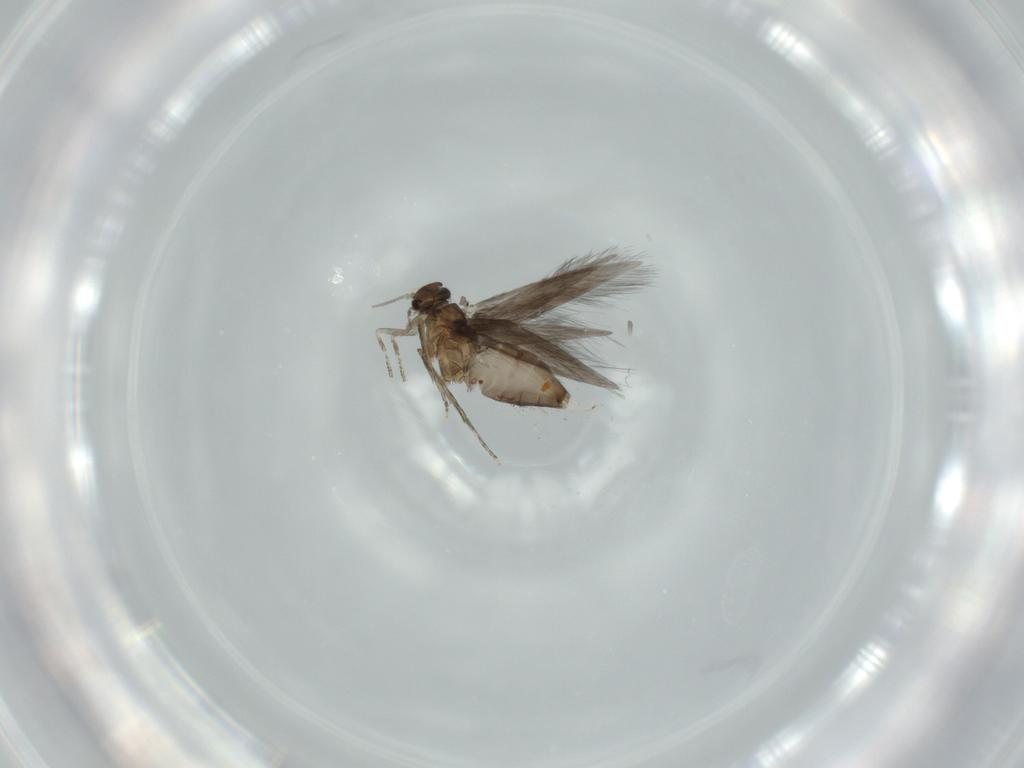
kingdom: Animalia
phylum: Arthropoda
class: Insecta
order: Trichoptera
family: Hydroptilidae
